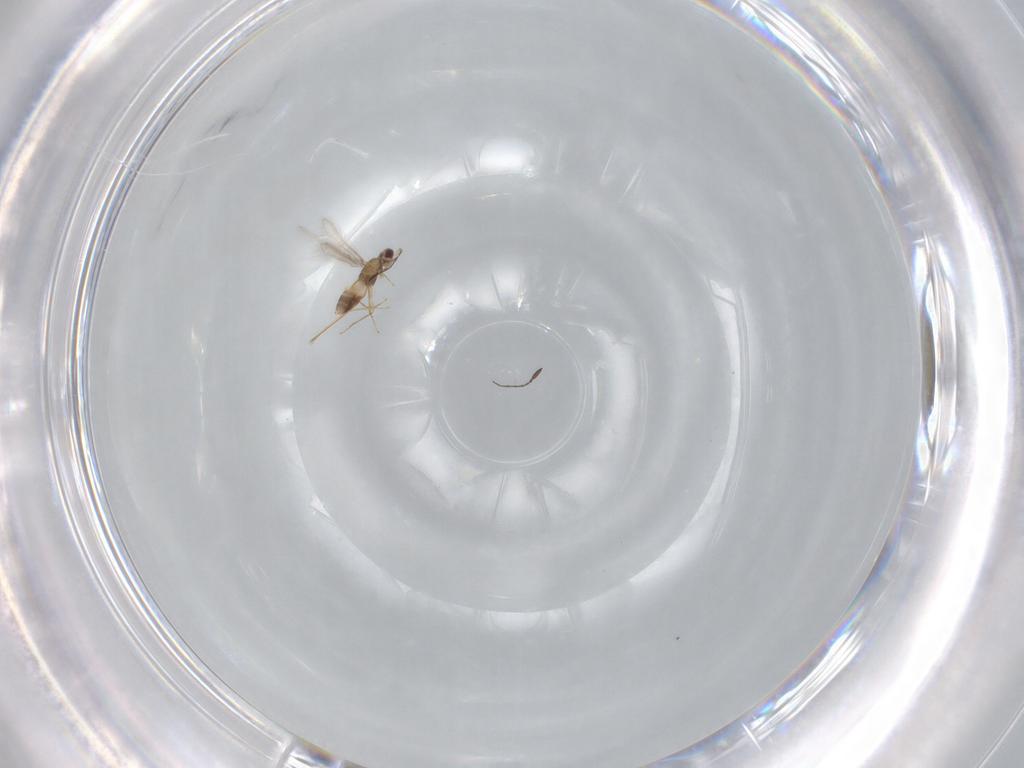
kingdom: Animalia
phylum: Arthropoda
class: Insecta
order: Hymenoptera
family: Mymaridae
